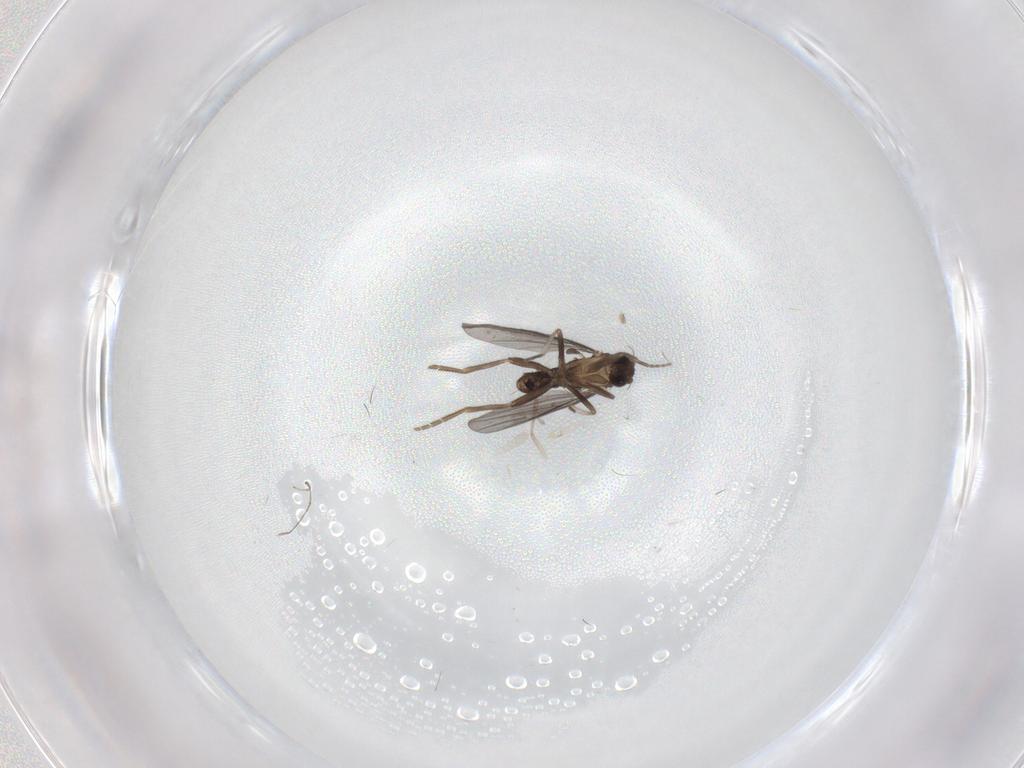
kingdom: Animalia
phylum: Arthropoda
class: Insecta
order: Diptera
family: Chironomidae
